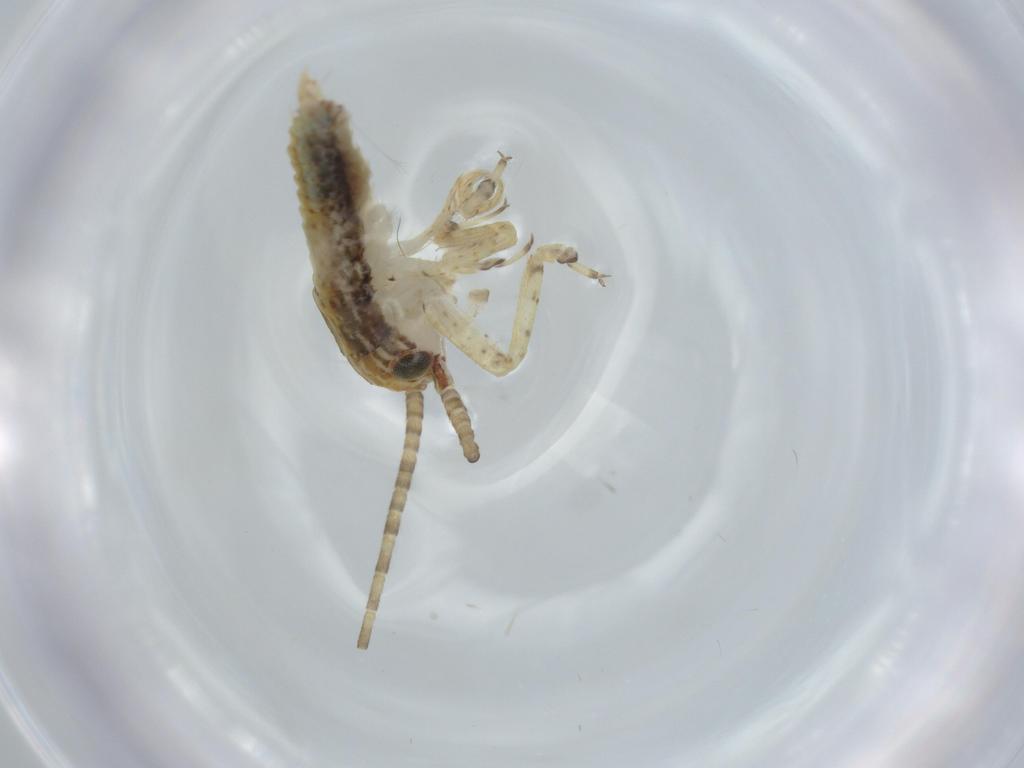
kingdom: Animalia
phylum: Arthropoda
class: Insecta
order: Orthoptera
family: Gryllidae
